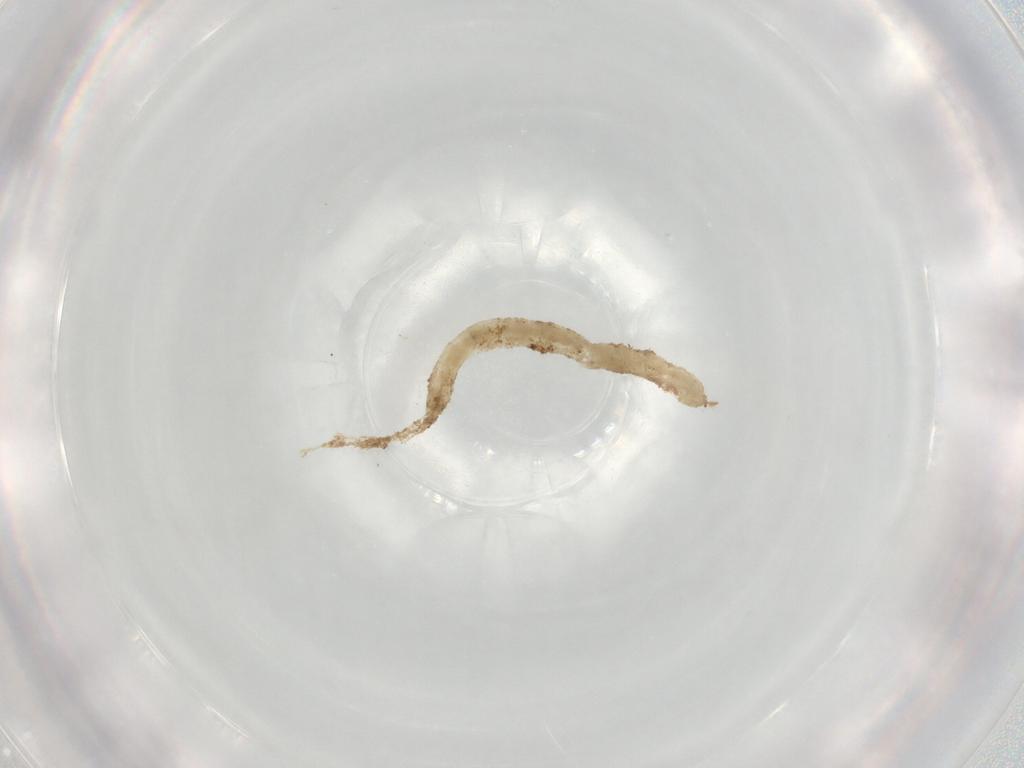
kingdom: Animalia
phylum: Arthropoda
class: Insecta
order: Diptera
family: Chironomidae
